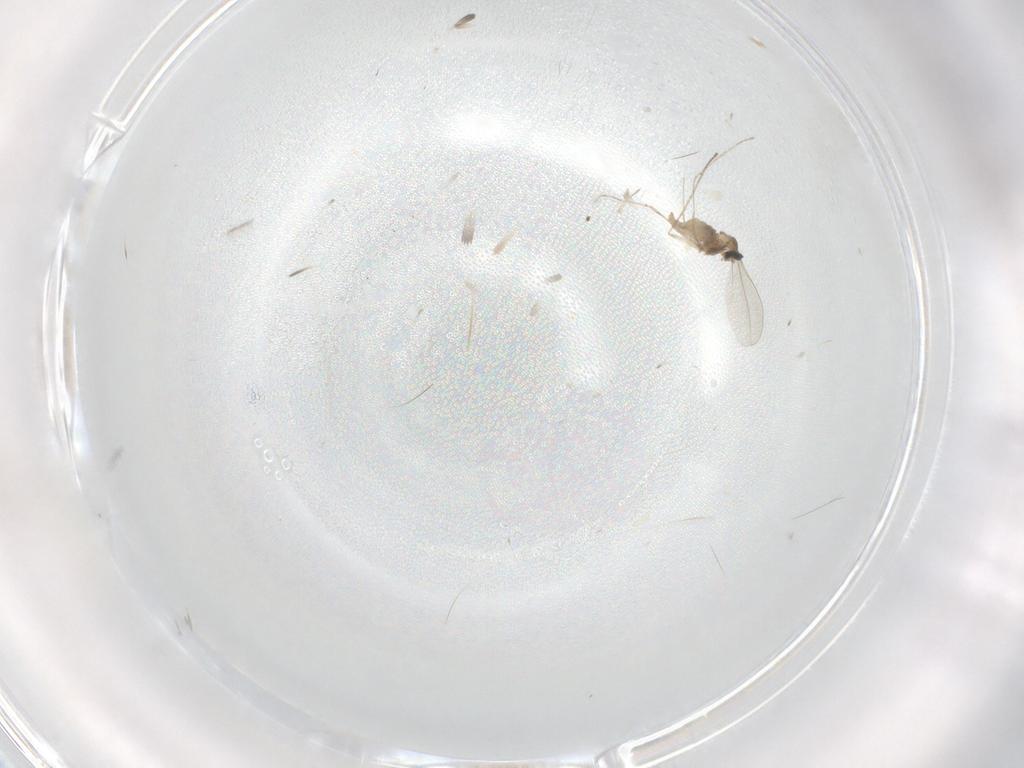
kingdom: Animalia
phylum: Arthropoda
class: Insecta
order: Diptera
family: Cecidomyiidae
